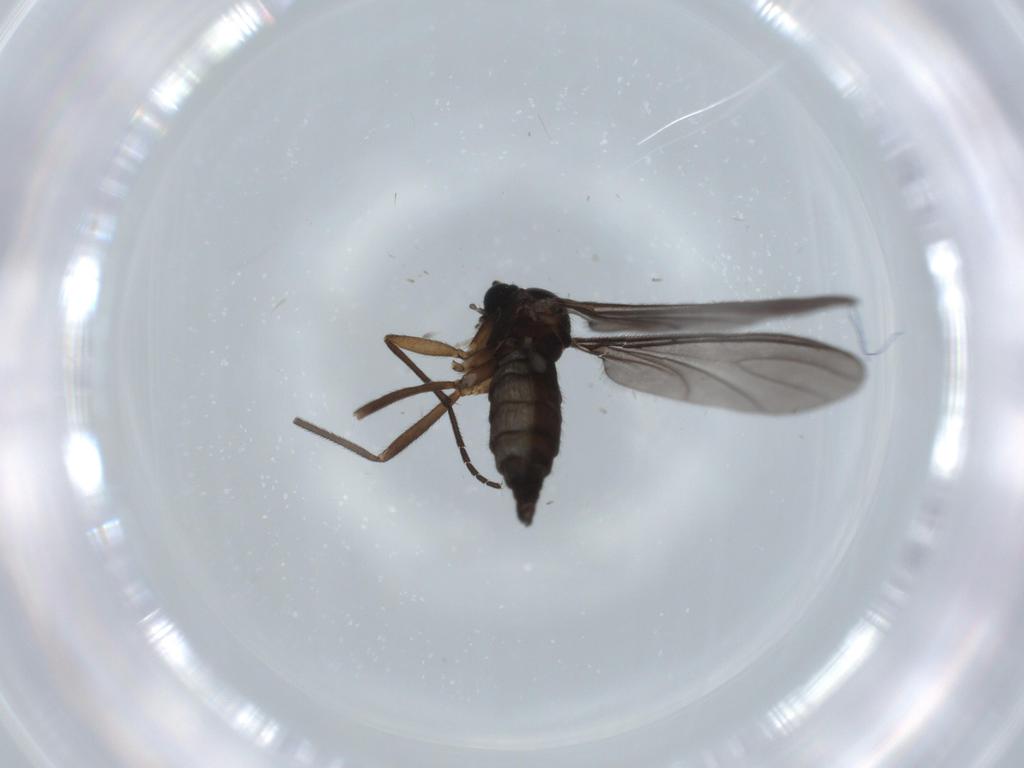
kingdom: Animalia
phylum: Arthropoda
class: Insecta
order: Diptera
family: Sciaridae
